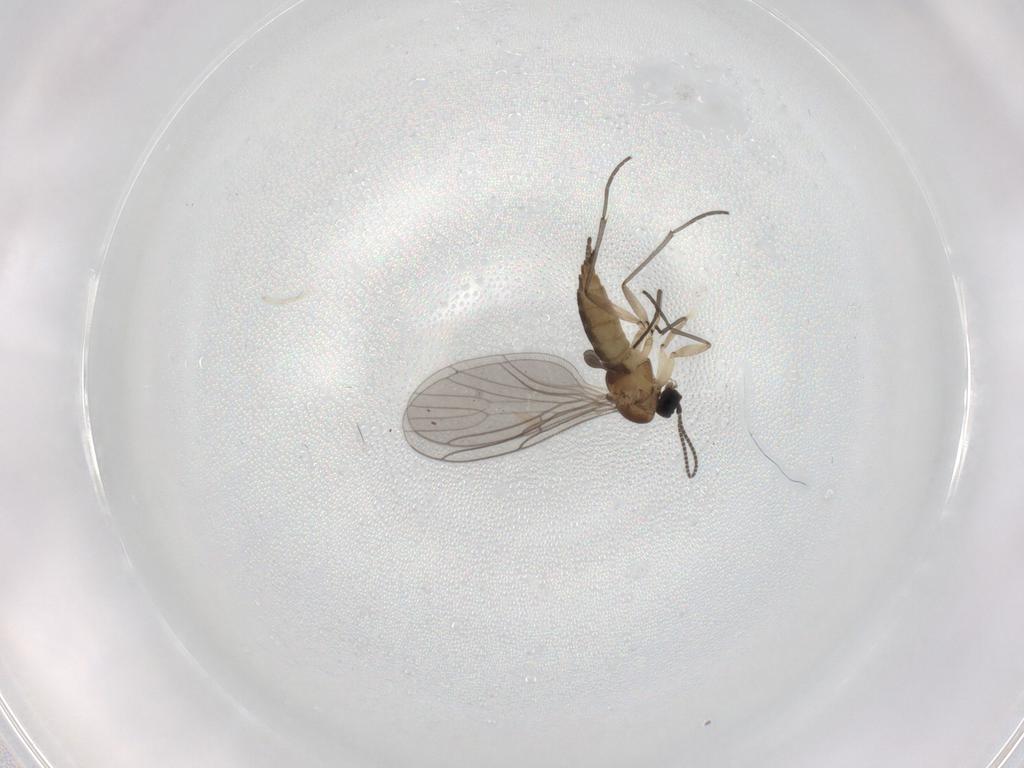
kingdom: Animalia
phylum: Arthropoda
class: Insecta
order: Diptera
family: Sciaridae
